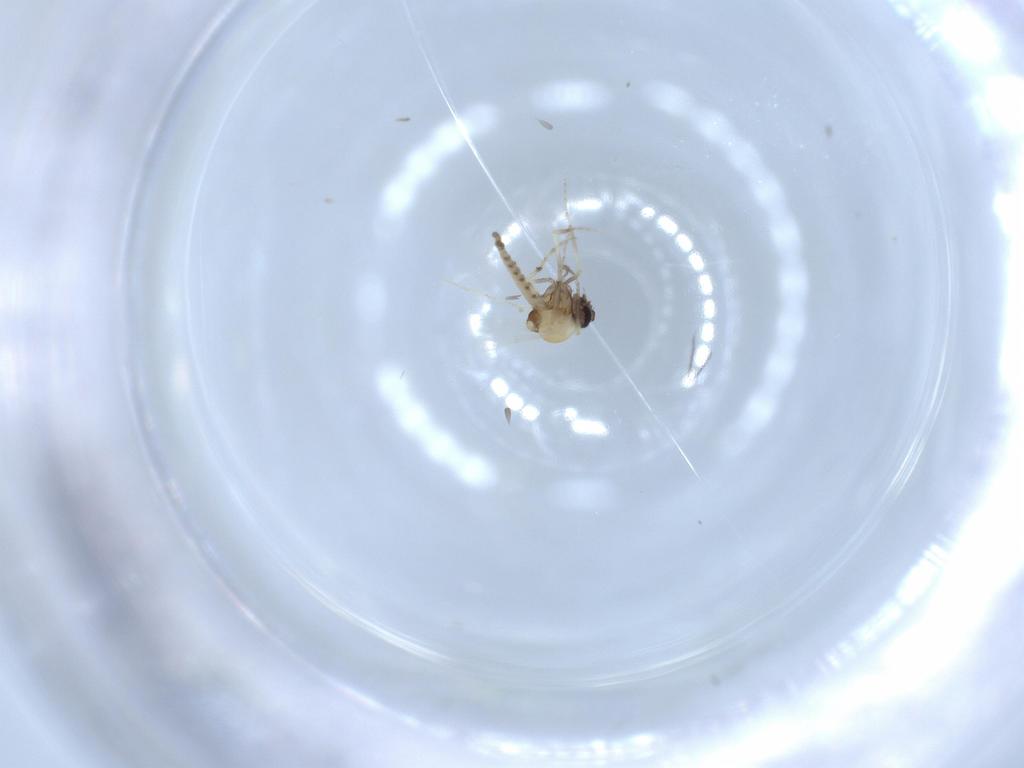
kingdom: Animalia
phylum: Arthropoda
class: Insecta
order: Diptera
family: Ceratopogonidae
